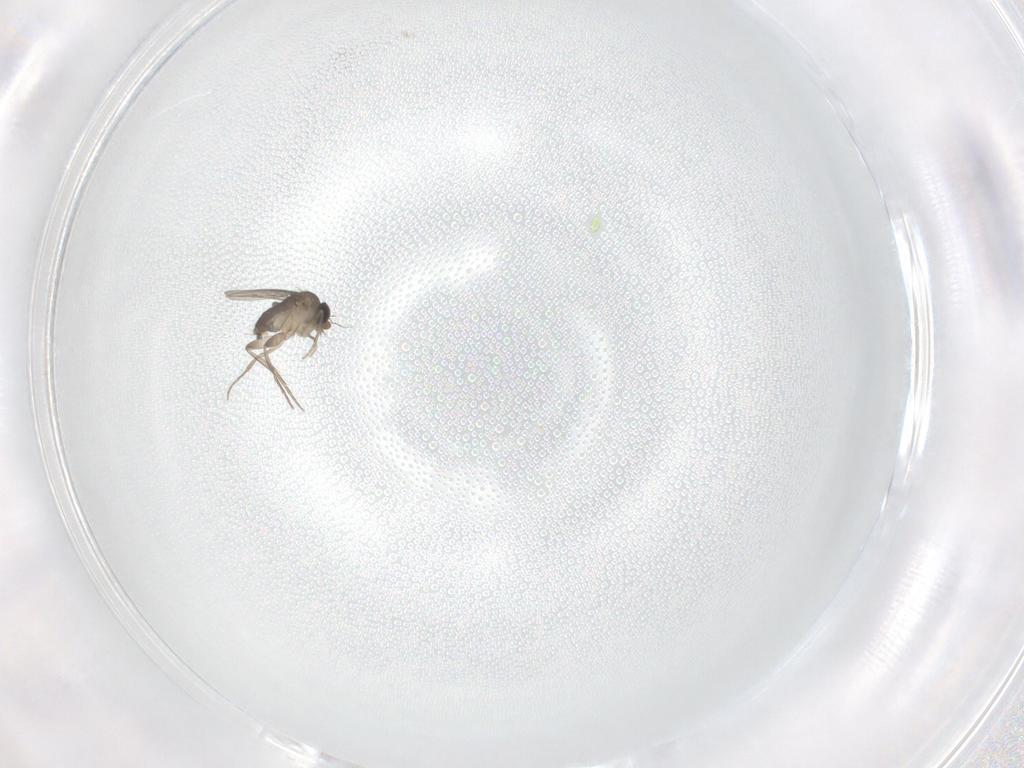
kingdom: Animalia
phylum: Arthropoda
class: Insecta
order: Diptera
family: Phoridae
